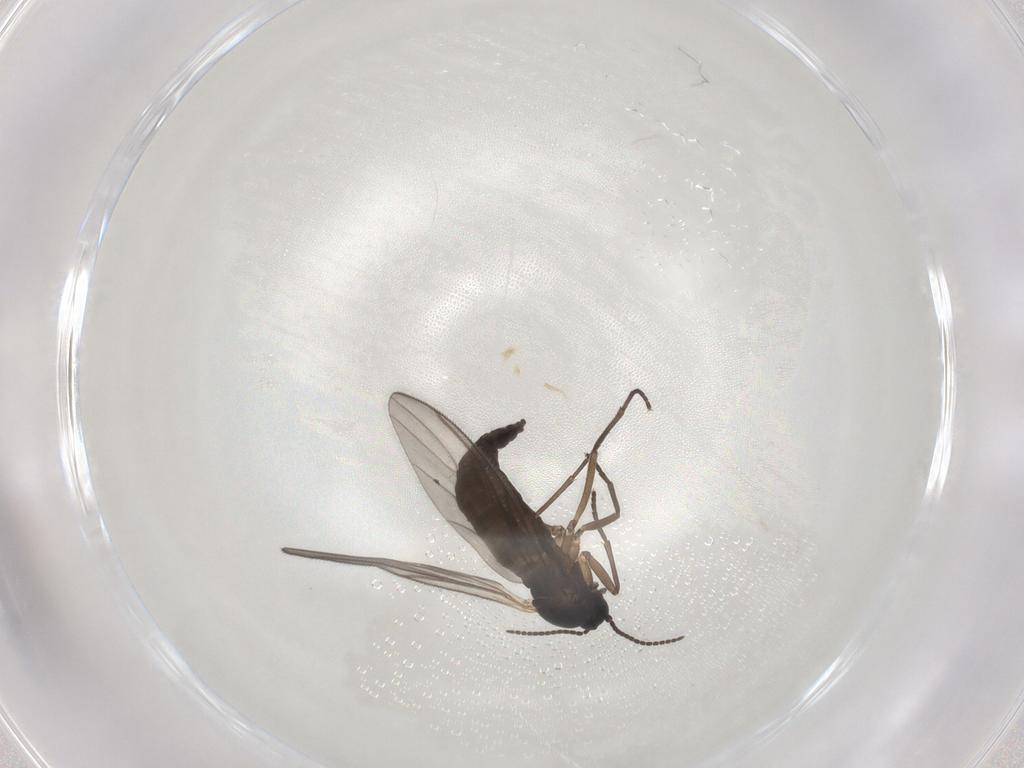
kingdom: Animalia
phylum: Arthropoda
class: Insecta
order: Diptera
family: Sciaridae
